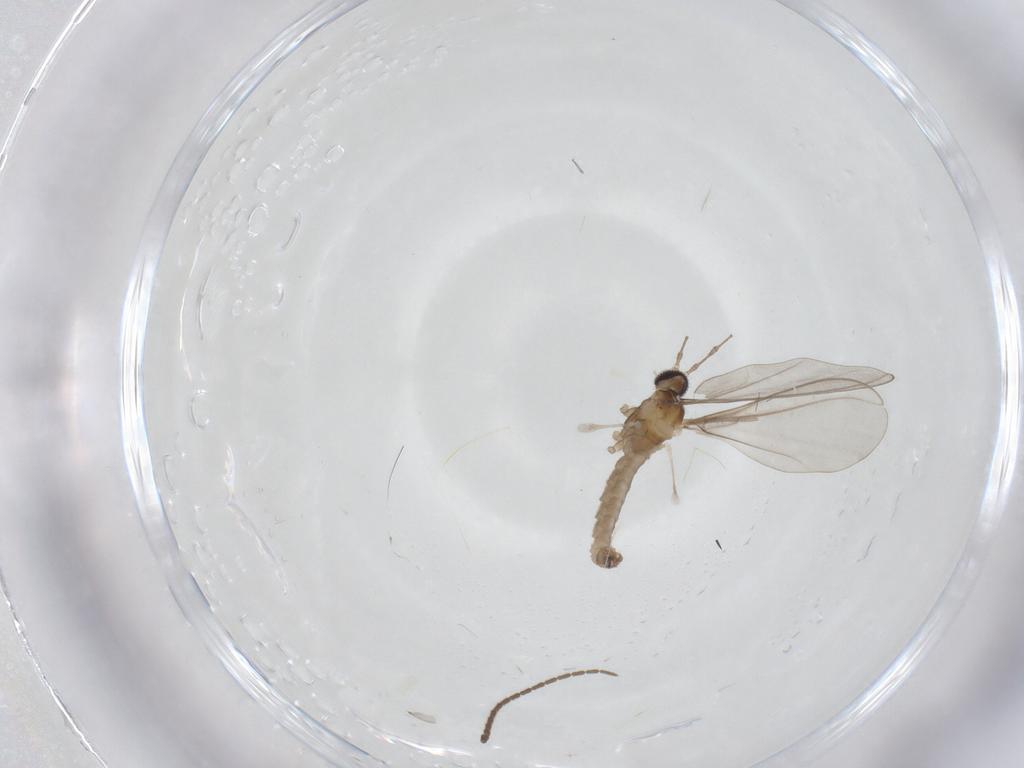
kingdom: Animalia
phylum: Arthropoda
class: Insecta
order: Diptera
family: Cecidomyiidae
